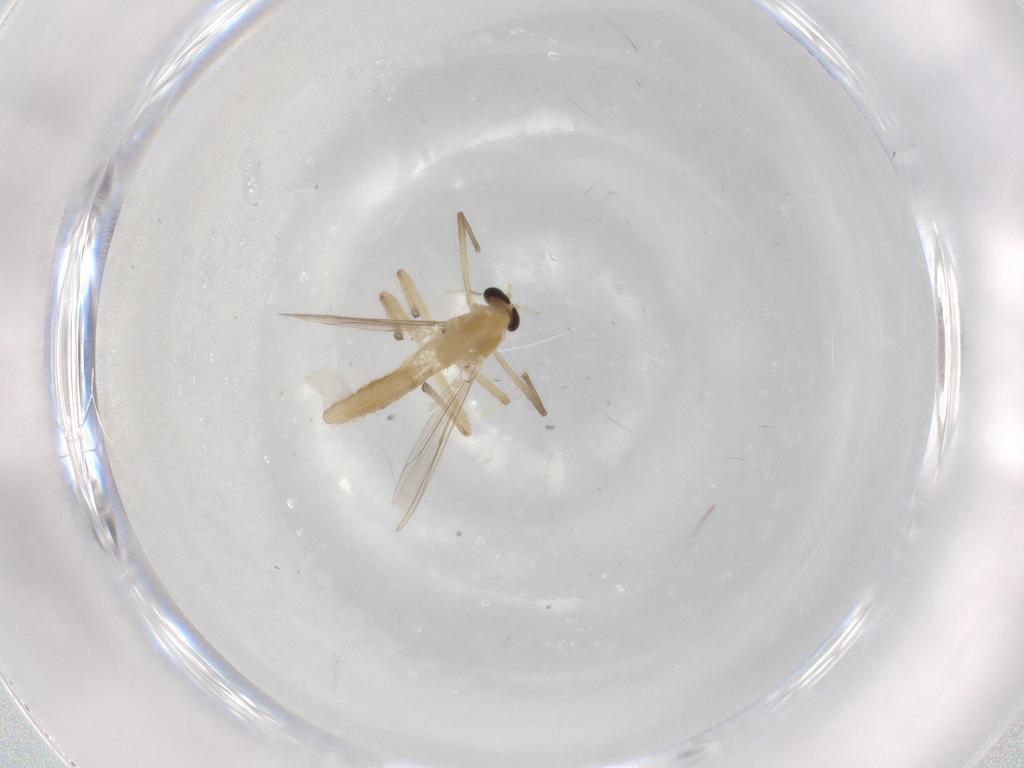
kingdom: Animalia
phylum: Arthropoda
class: Insecta
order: Diptera
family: Chironomidae
